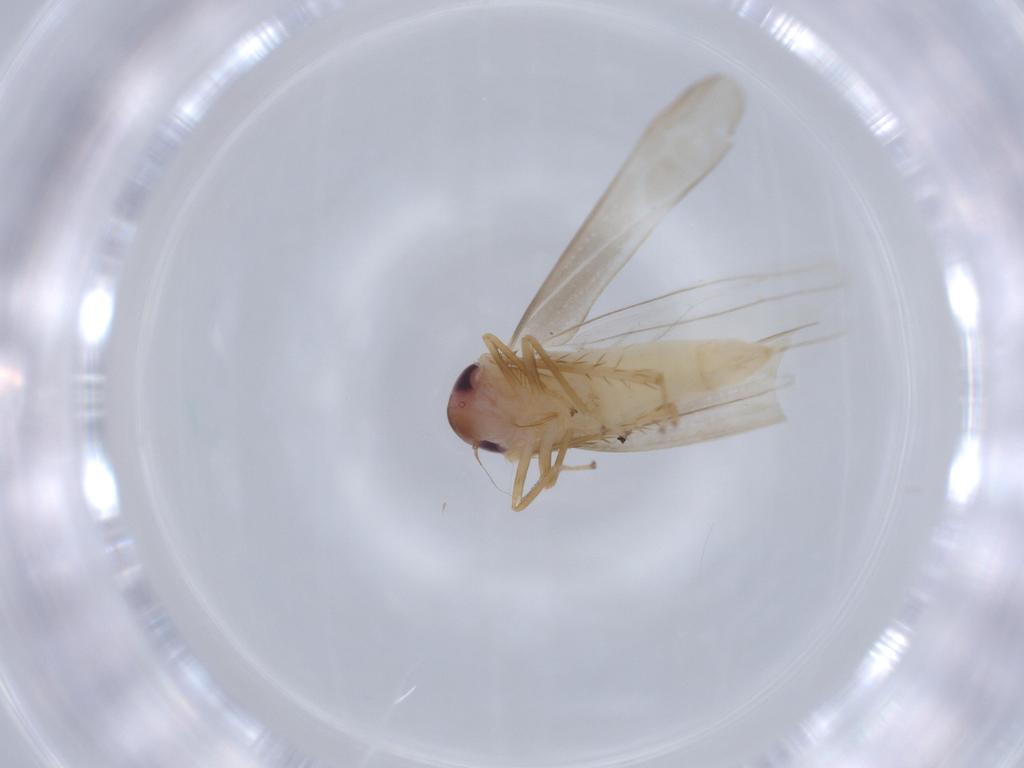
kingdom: Animalia
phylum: Arthropoda
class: Insecta
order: Hemiptera
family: Cicadellidae
